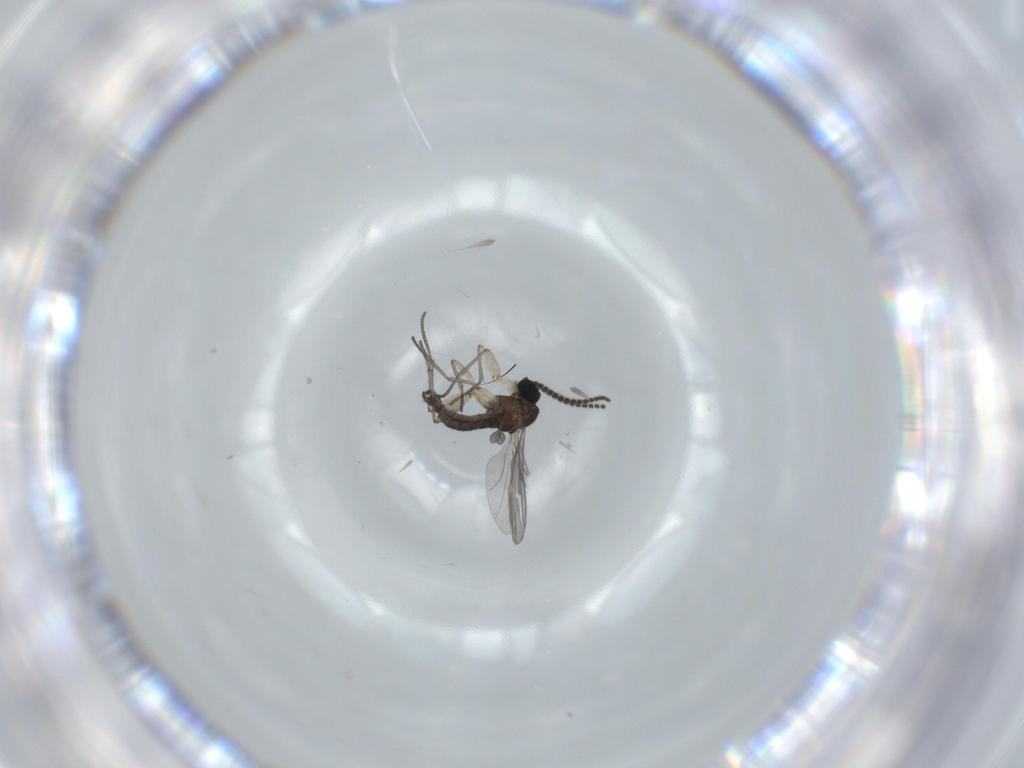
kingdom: Animalia
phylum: Arthropoda
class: Insecta
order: Diptera
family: Sciaridae
